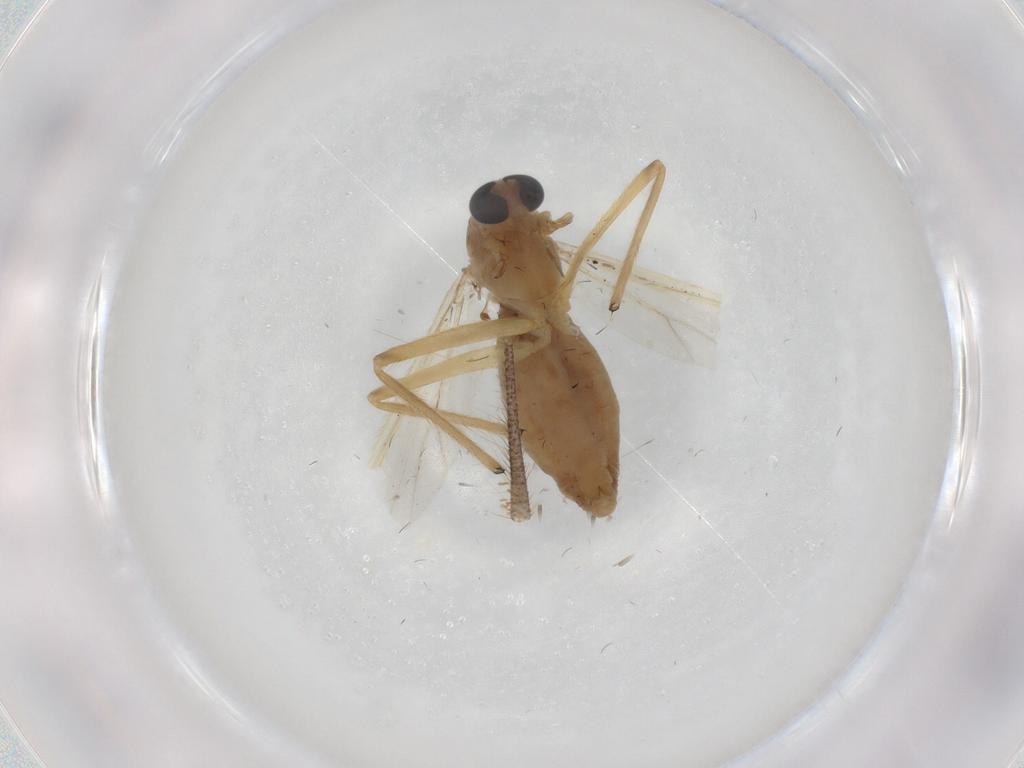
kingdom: Animalia
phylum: Arthropoda
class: Insecta
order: Diptera
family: Chironomidae
